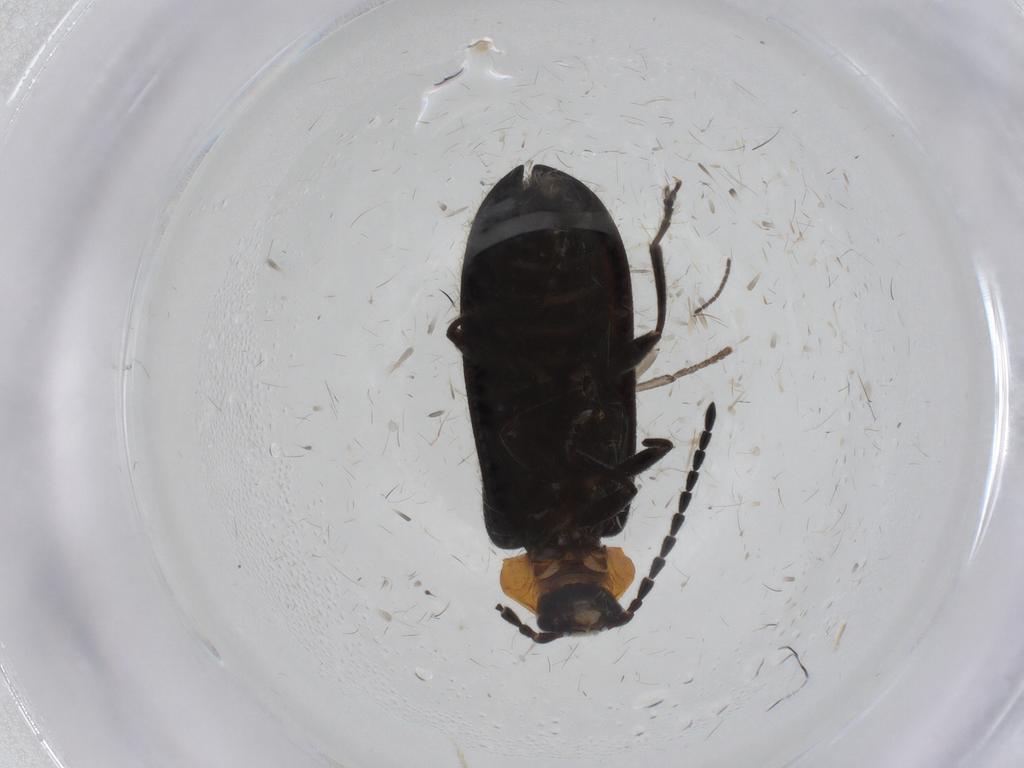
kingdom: Animalia
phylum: Arthropoda
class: Insecta
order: Coleoptera
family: Cantharidae
